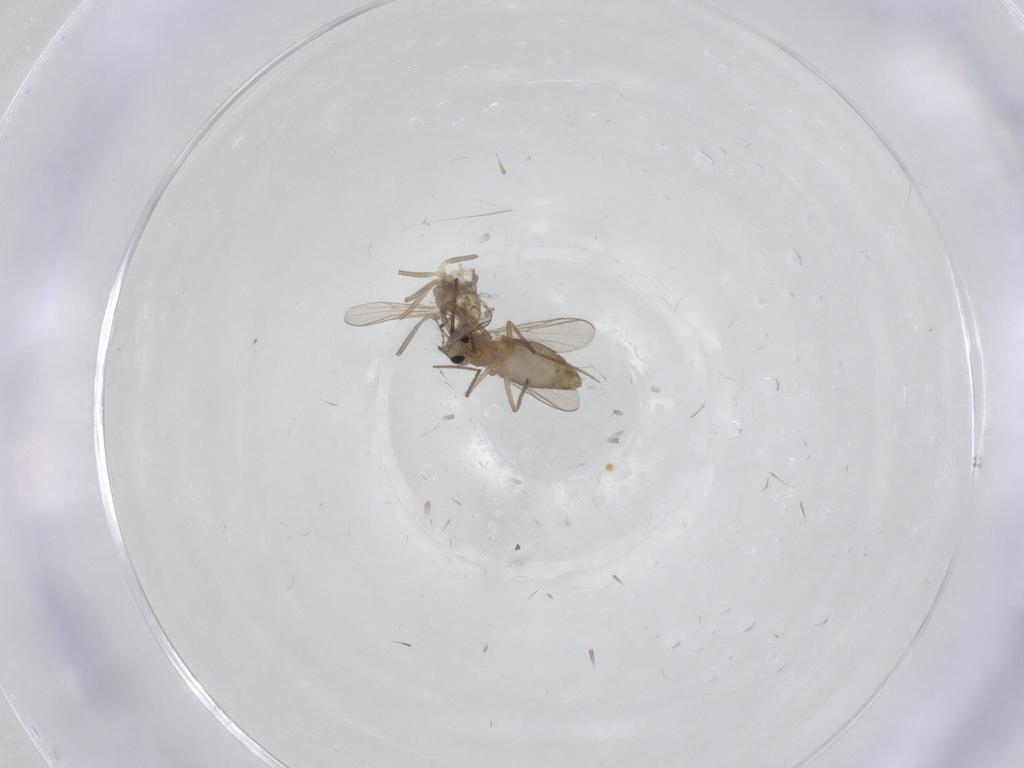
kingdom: Animalia
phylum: Arthropoda
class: Insecta
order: Diptera
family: Chironomidae
